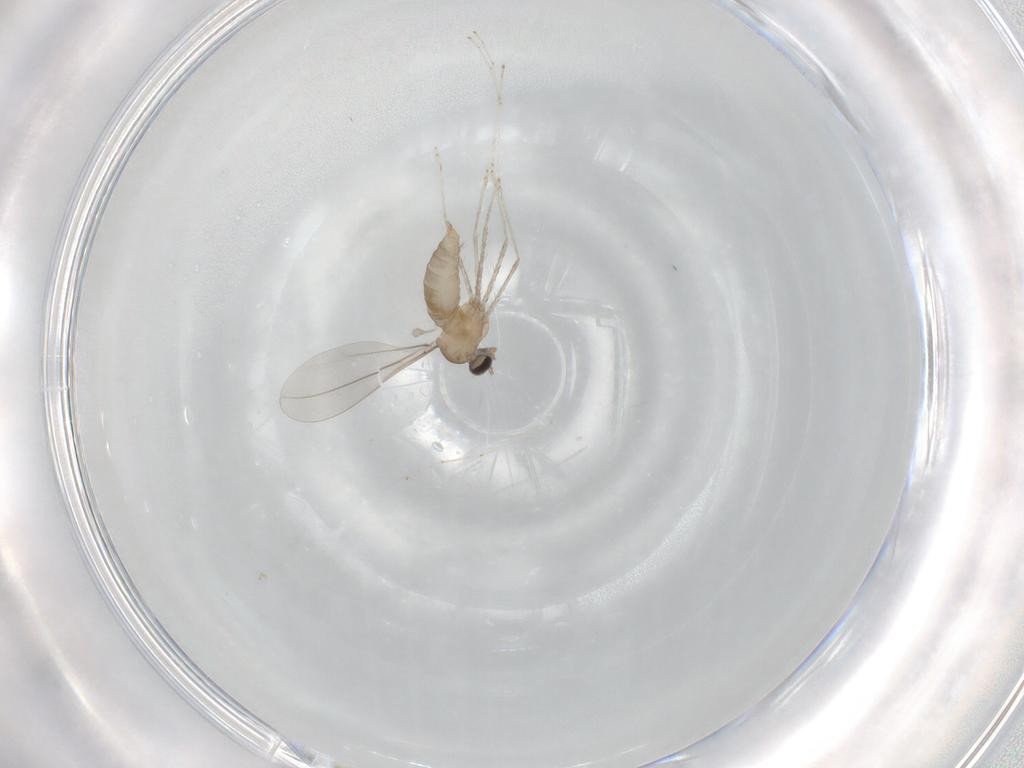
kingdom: Animalia
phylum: Arthropoda
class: Insecta
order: Diptera
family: Cecidomyiidae
